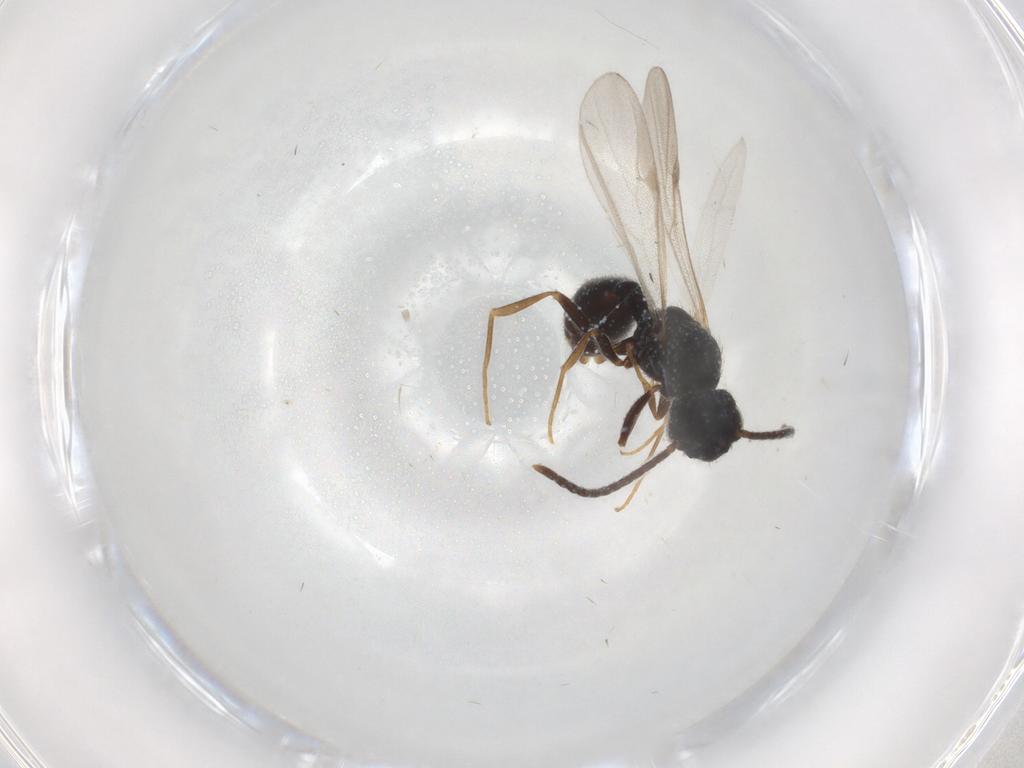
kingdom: Animalia
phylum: Arthropoda
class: Insecta
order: Hymenoptera
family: Formicidae
